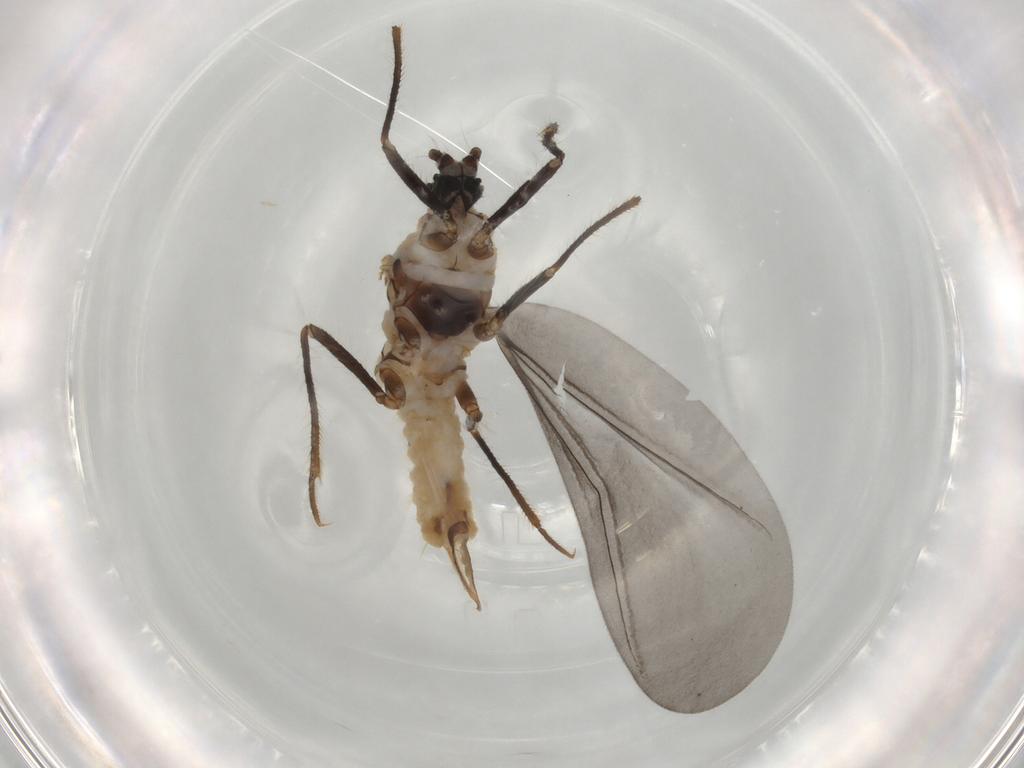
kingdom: Animalia
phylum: Arthropoda
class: Insecta
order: Hemiptera
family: Putoidae
